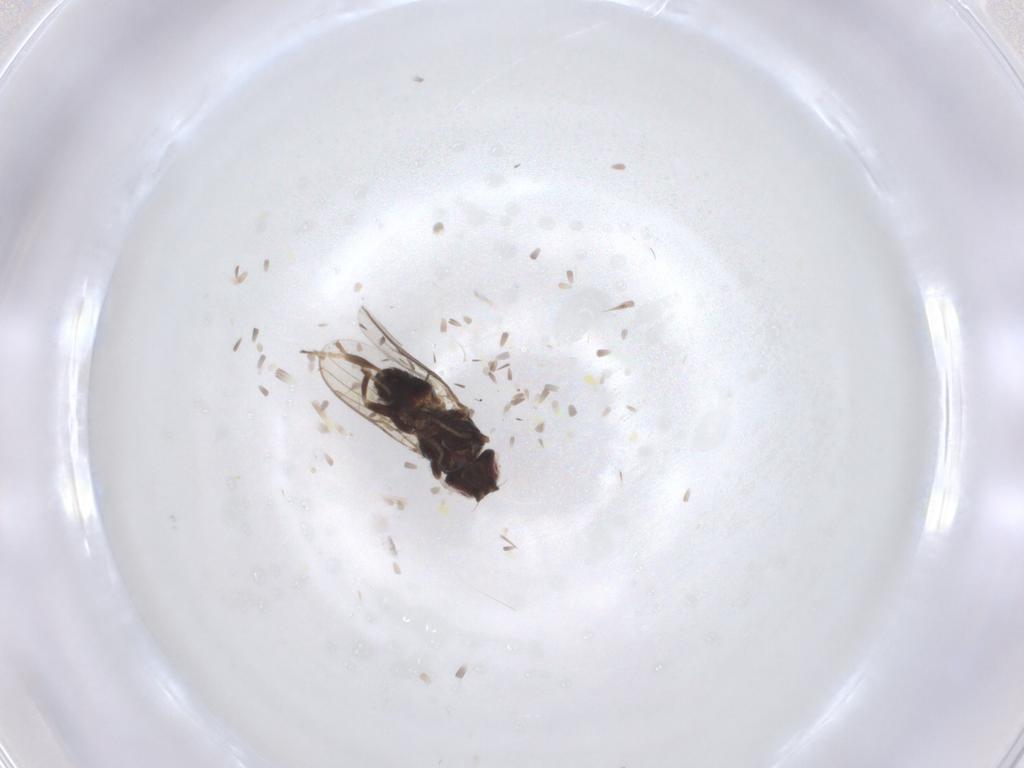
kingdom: Animalia
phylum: Arthropoda
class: Insecta
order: Diptera
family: Chloropidae
